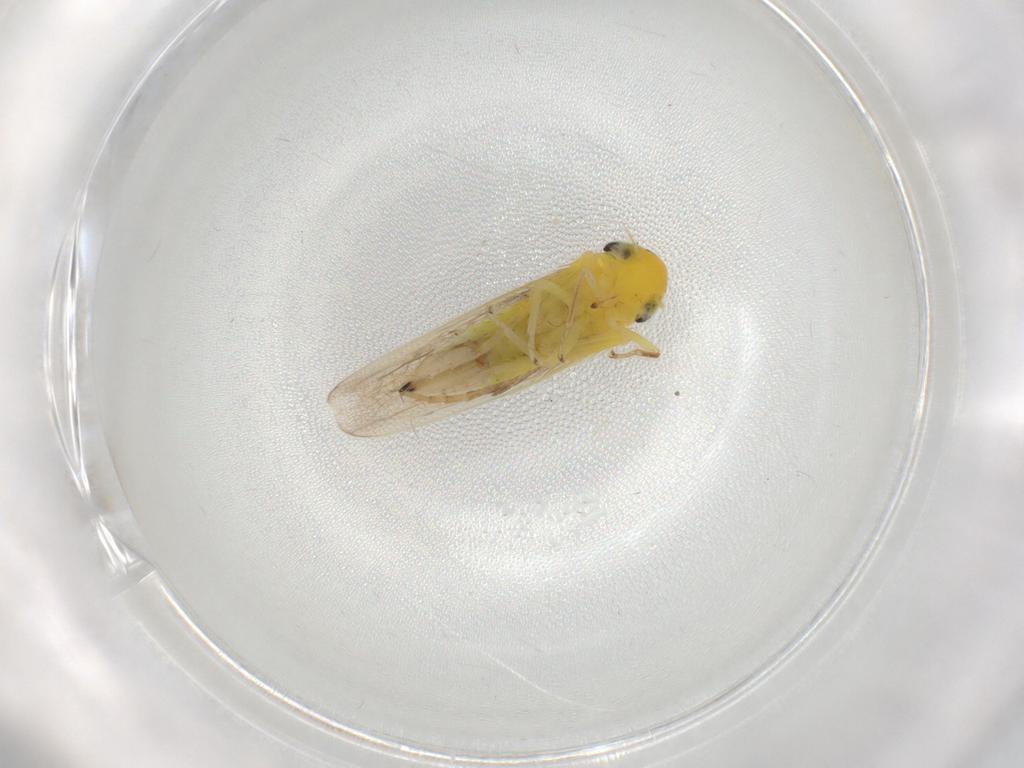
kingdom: Animalia
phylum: Arthropoda
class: Insecta
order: Hemiptera
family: Cicadellidae
